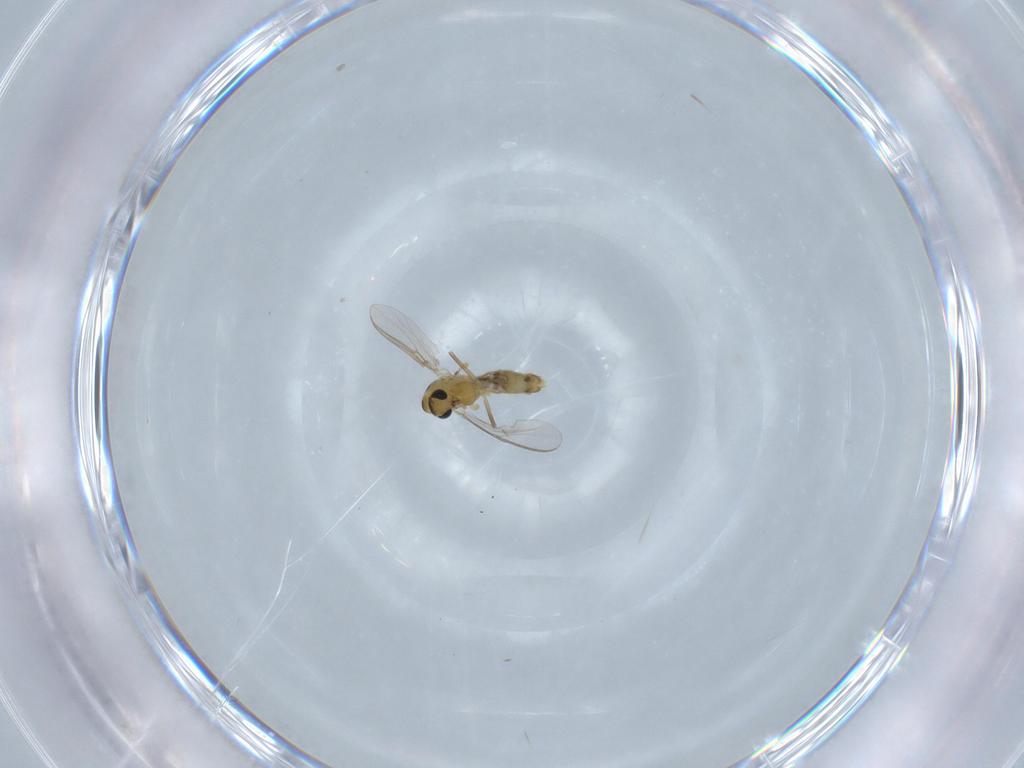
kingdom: Animalia
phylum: Arthropoda
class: Insecta
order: Diptera
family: Chironomidae
